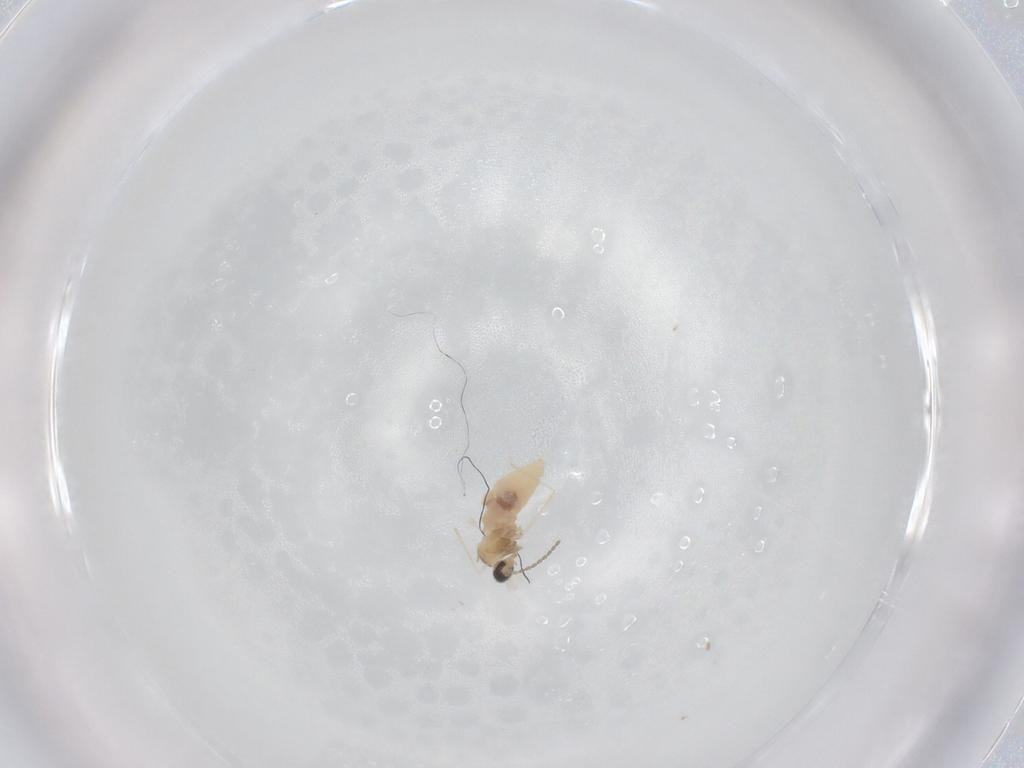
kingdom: Animalia
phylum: Arthropoda
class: Insecta
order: Diptera
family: Cecidomyiidae
